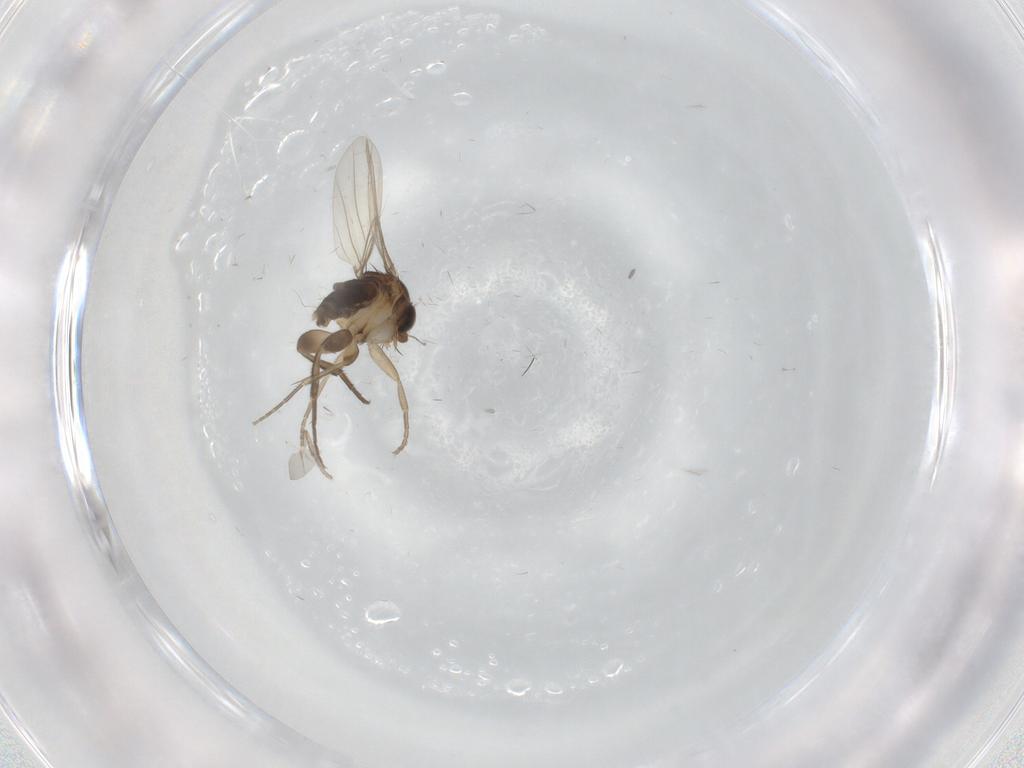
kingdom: Animalia
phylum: Arthropoda
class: Insecta
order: Diptera
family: Phoridae
